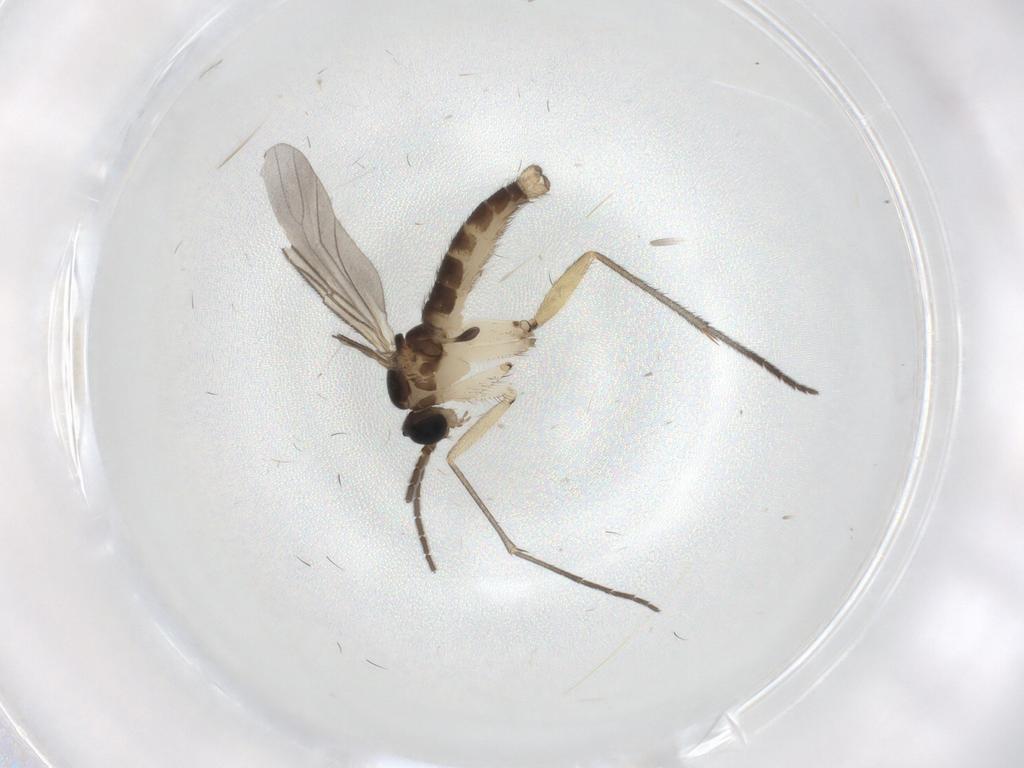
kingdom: Animalia
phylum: Arthropoda
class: Insecta
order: Diptera
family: Sciaridae
